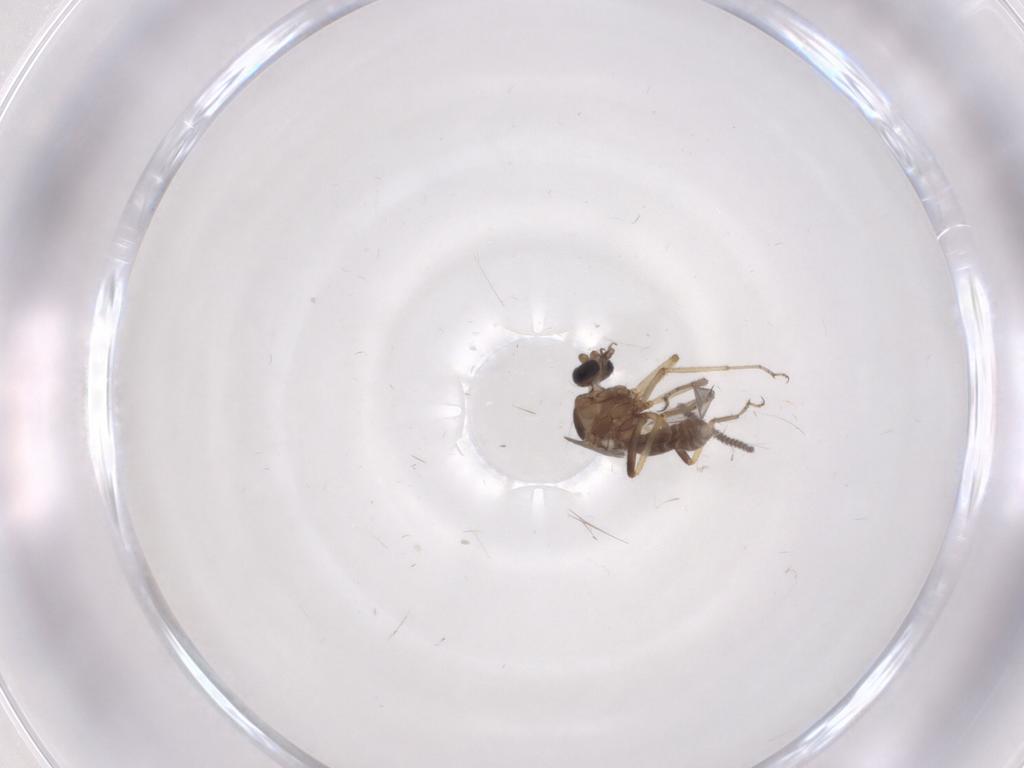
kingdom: Animalia
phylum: Arthropoda
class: Insecta
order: Diptera
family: Ceratopogonidae
